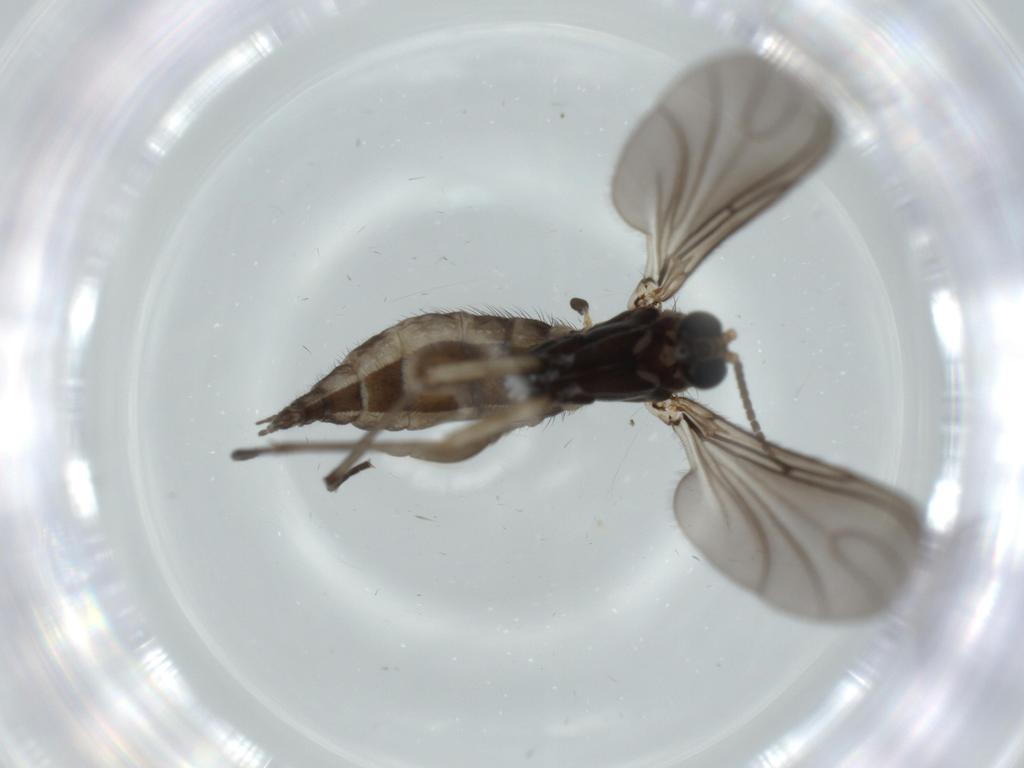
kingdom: Animalia
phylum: Arthropoda
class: Insecta
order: Diptera
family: Sciaridae
